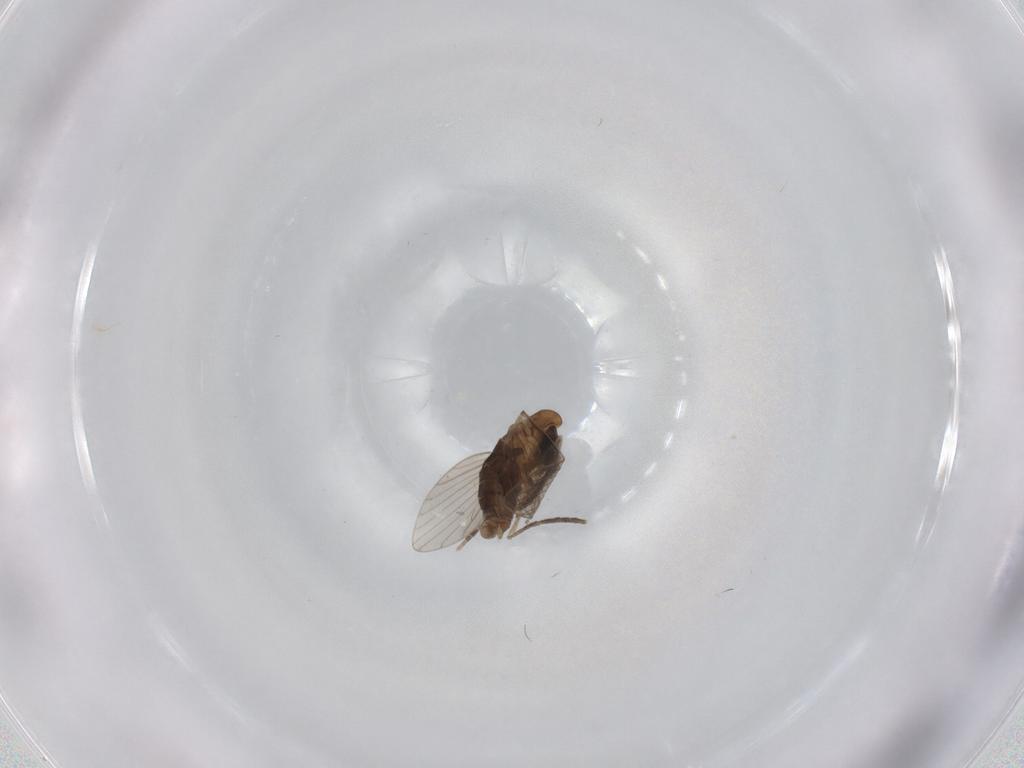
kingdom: Animalia
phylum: Arthropoda
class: Insecta
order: Diptera
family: Psychodidae
